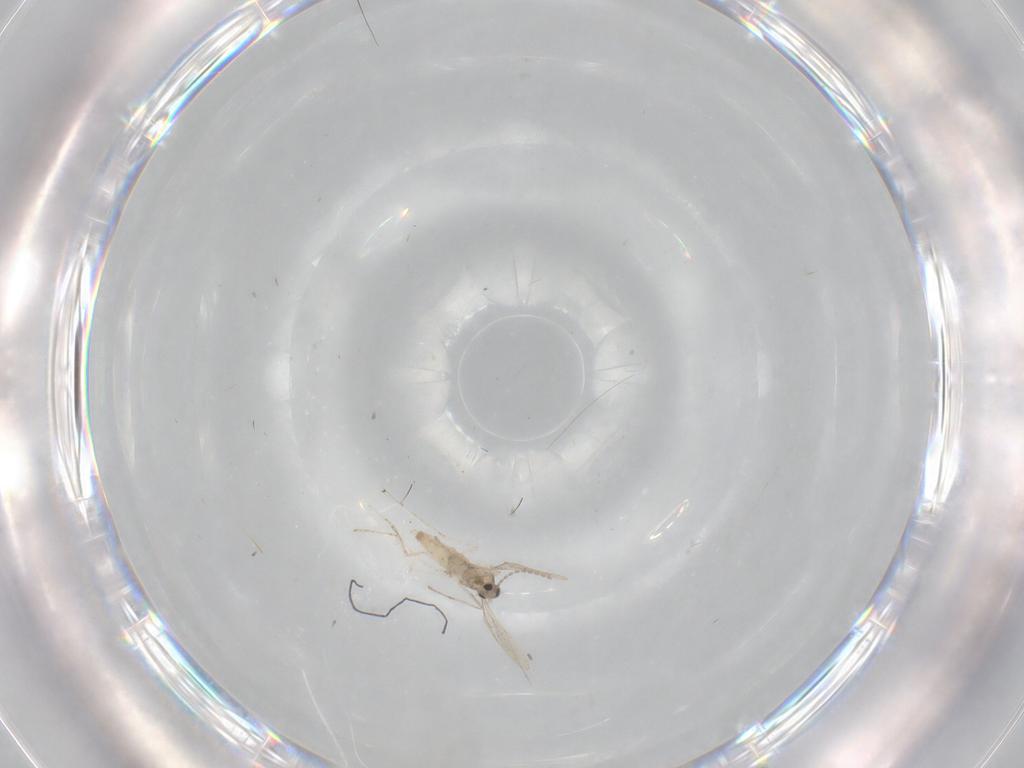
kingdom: Animalia
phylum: Arthropoda
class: Insecta
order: Diptera
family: Cecidomyiidae
